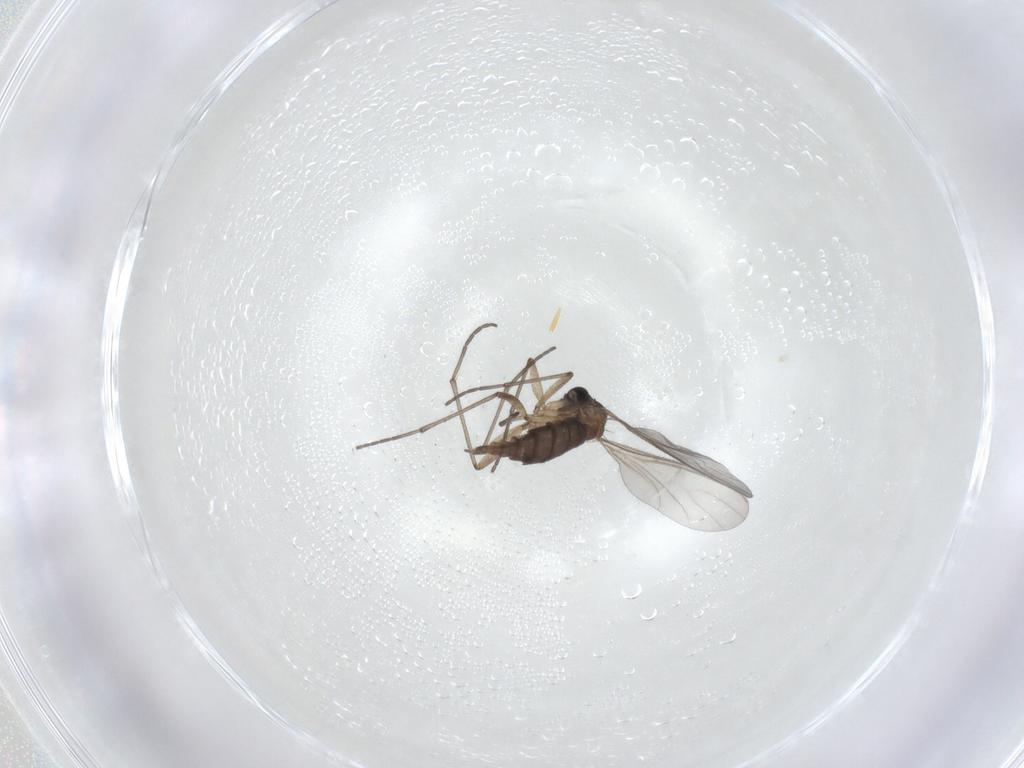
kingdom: Animalia
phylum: Arthropoda
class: Insecta
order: Diptera
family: Sciaridae
